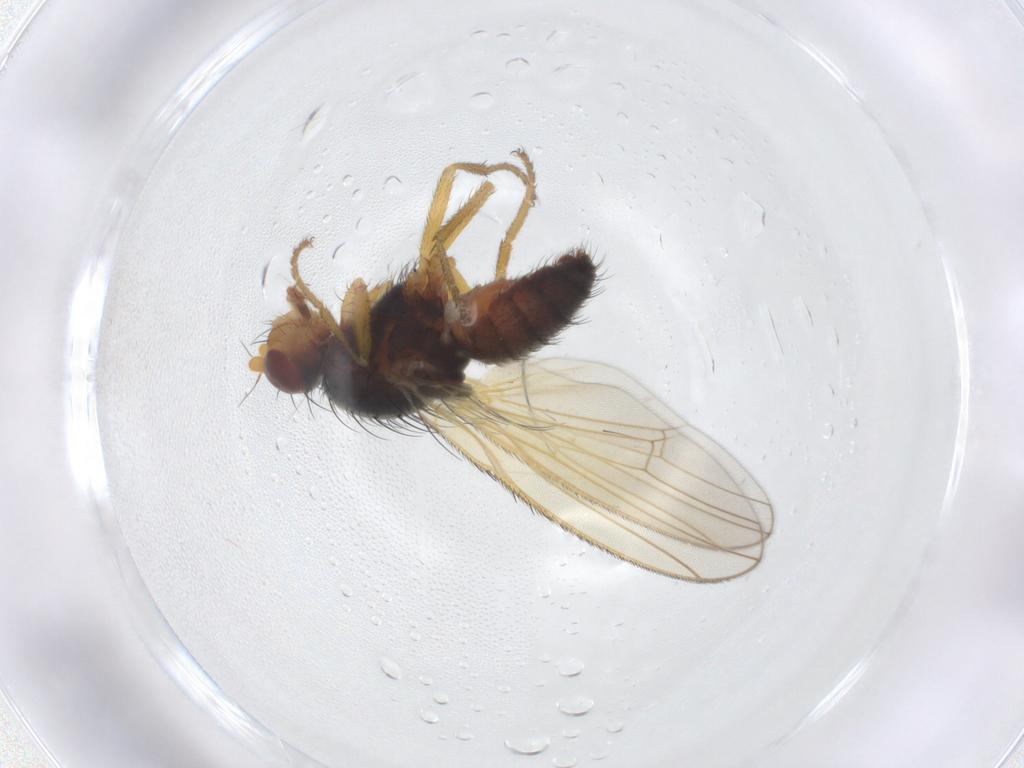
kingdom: Animalia
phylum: Arthropoda
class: Insecta
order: Diptera
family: Heleomyzidae
